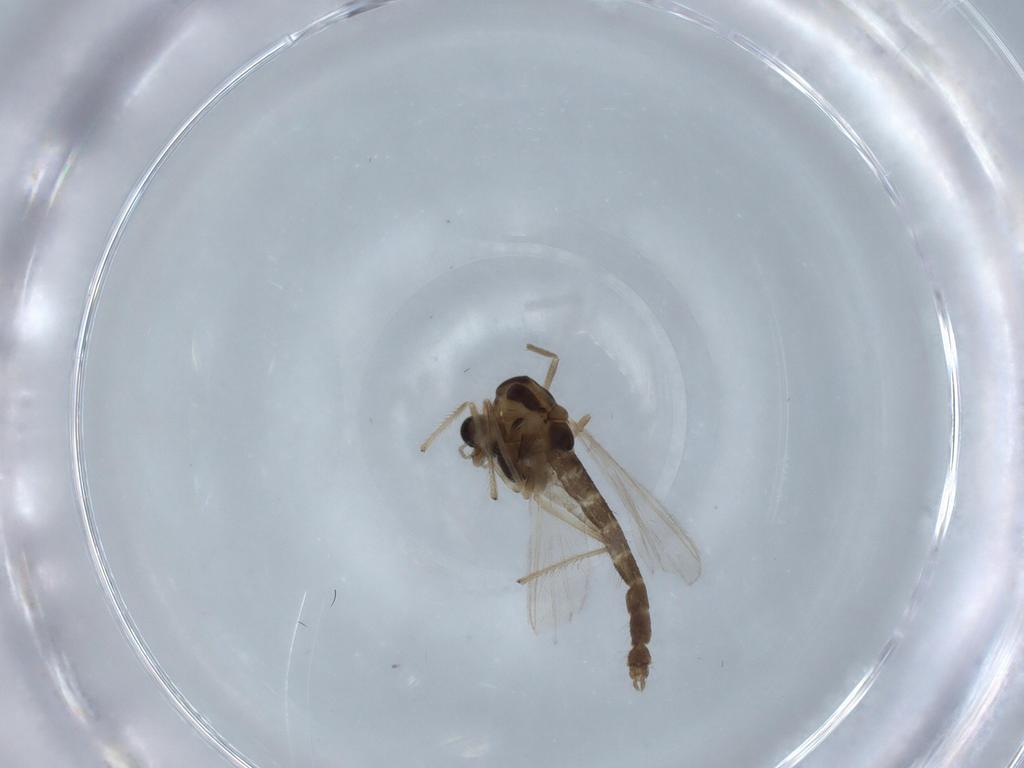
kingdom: Animalia
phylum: Arthropoda
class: Insecta
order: Diptera
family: Chironomidae
